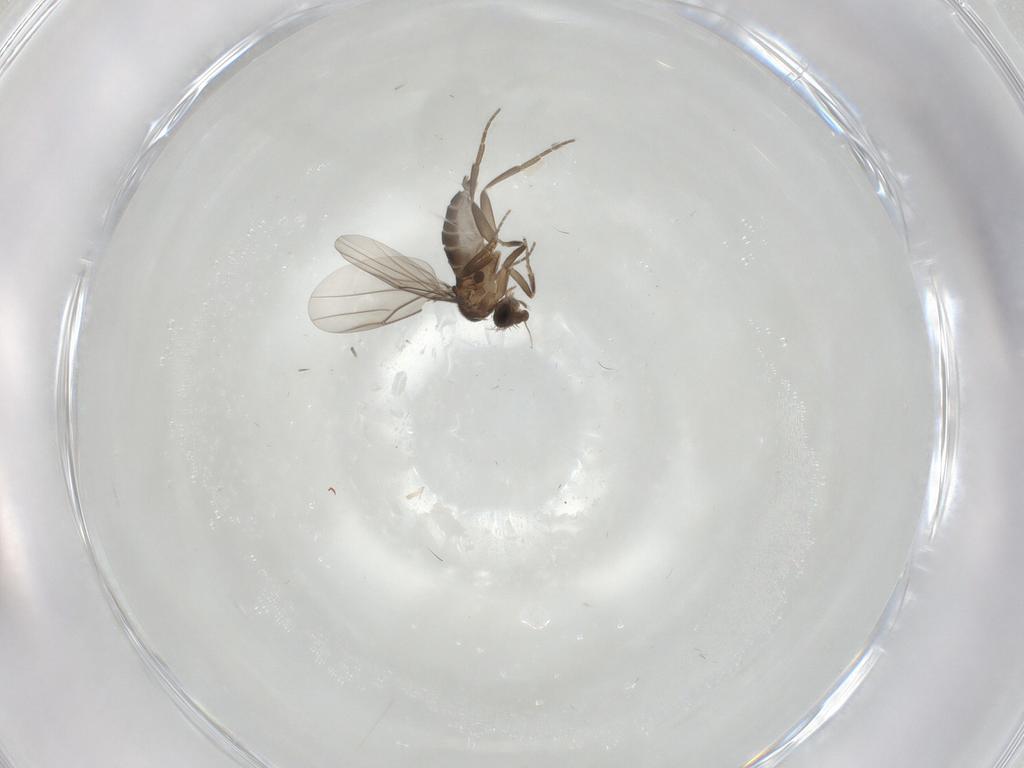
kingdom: Animalia
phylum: Arthropoda
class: Insecta
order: Diptera
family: Phoridae
